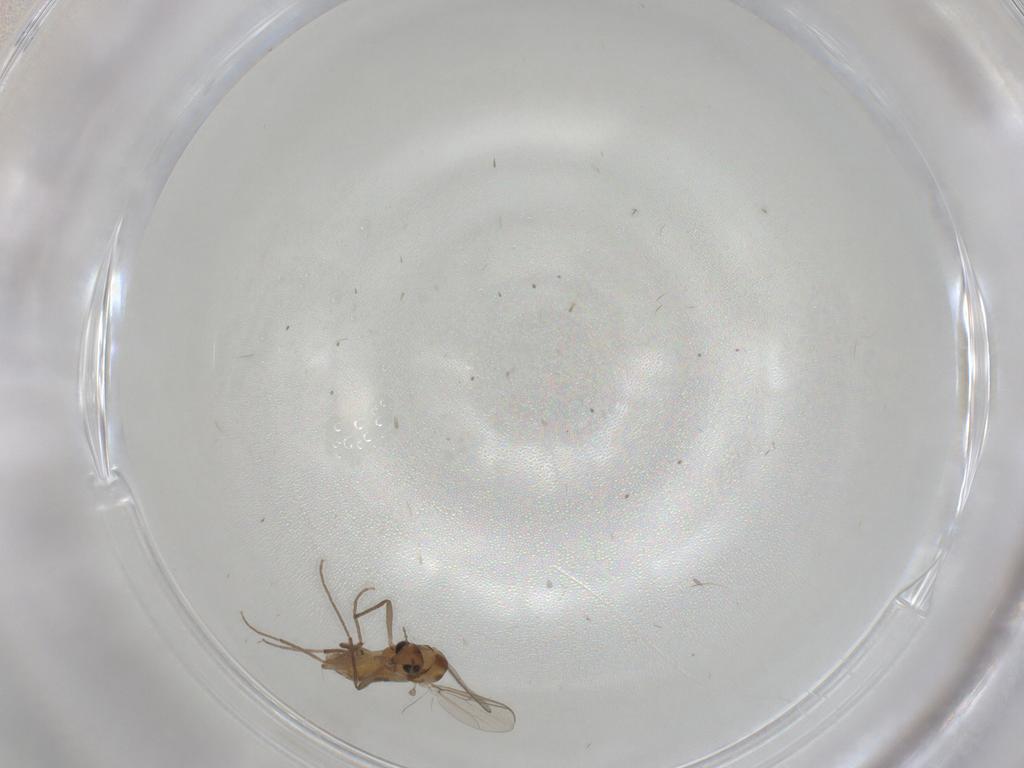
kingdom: Animalia
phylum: Arthropoda
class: Insecta
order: Diptera
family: Chironomidae
